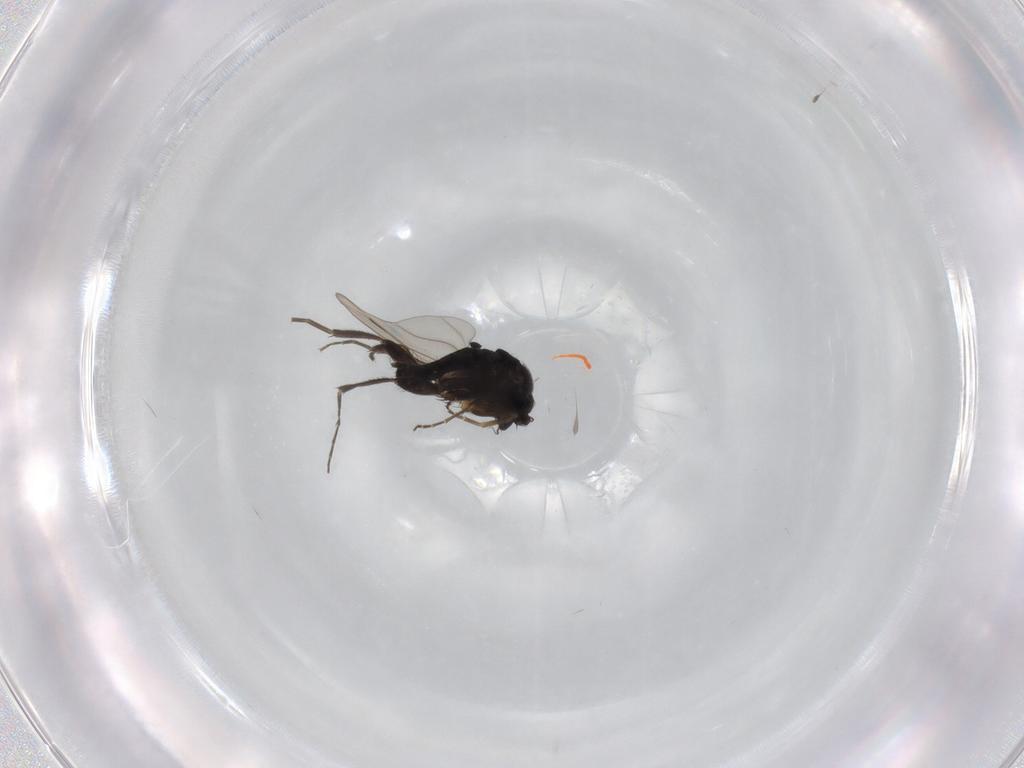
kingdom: Animalia
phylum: Arthropoda
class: Insecta
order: Diptera
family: Phoridae
